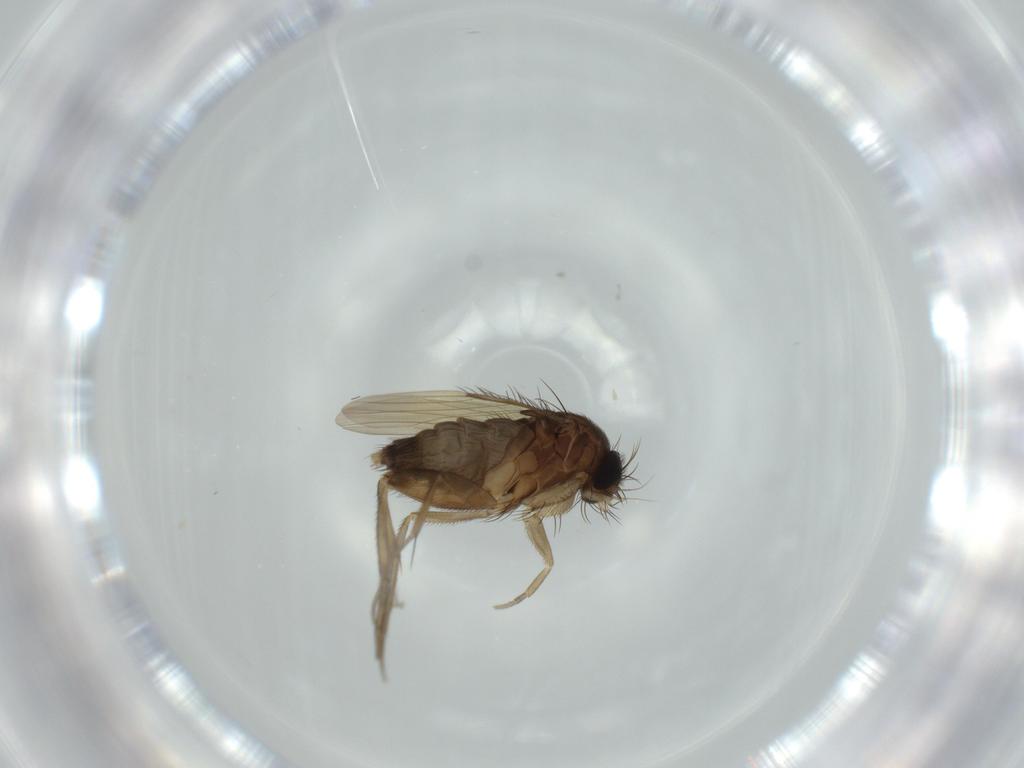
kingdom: Animalia
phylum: Arthropoda
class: Insecta
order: Diptera
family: Phoridae
